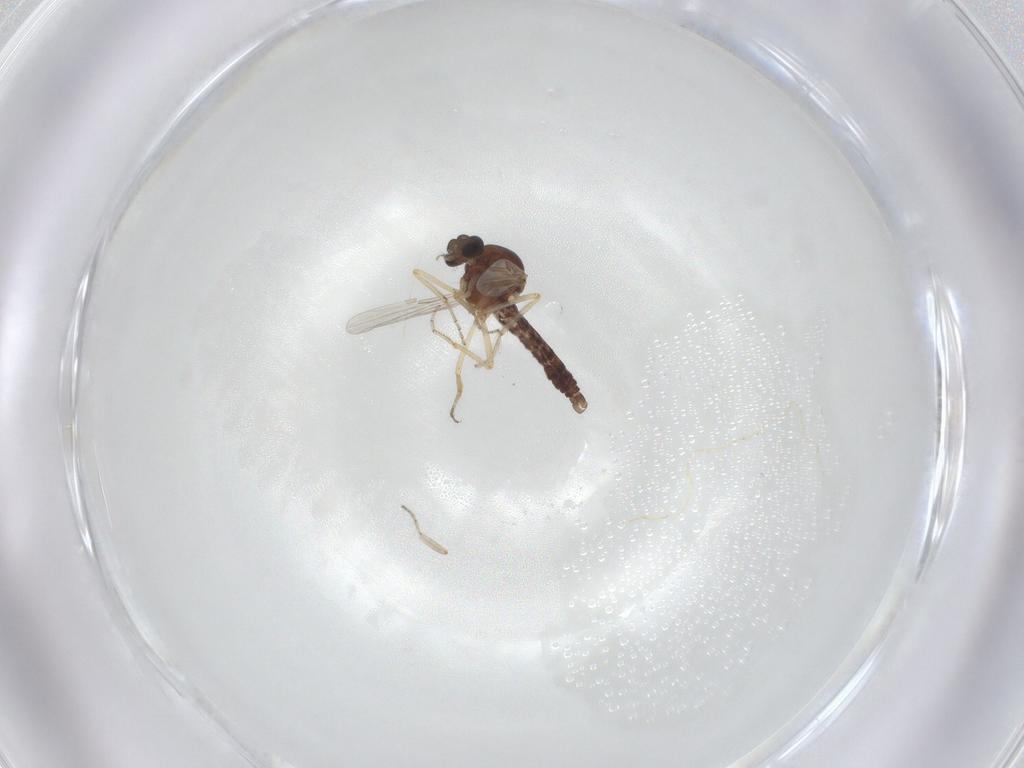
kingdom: Animalia
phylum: Arthropoda
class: Insecta
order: Diptera
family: Ceratopogonidae
